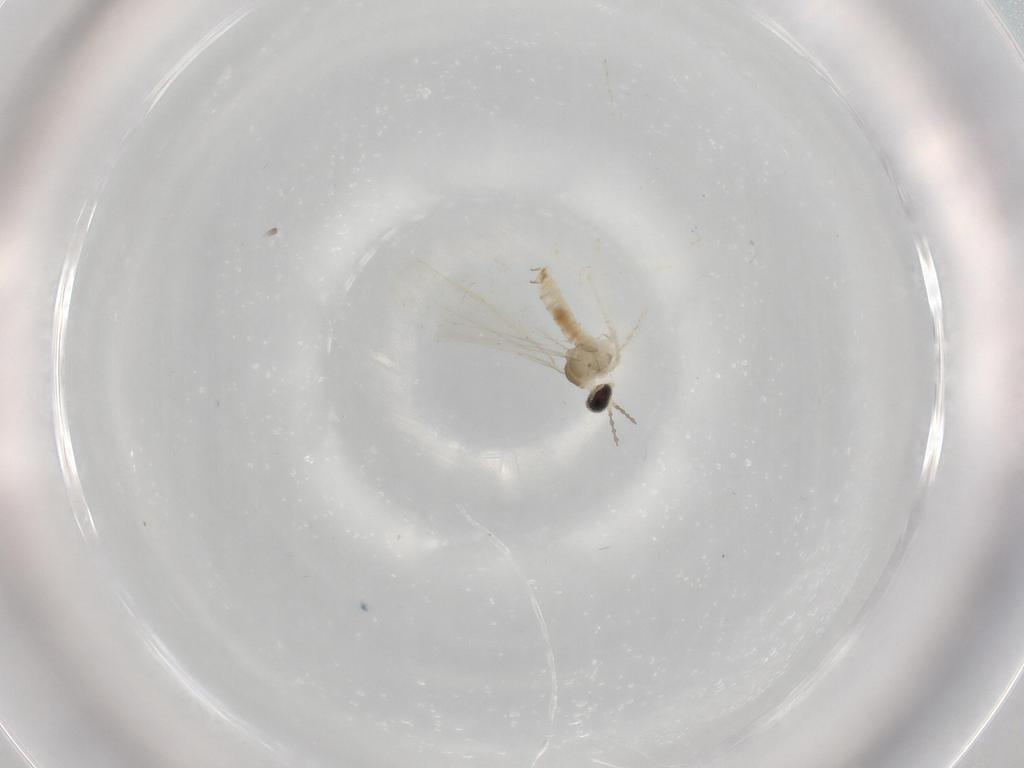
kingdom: Animalia
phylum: Arthropoda
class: Insecta
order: Diptera
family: Cecidomyiidae
